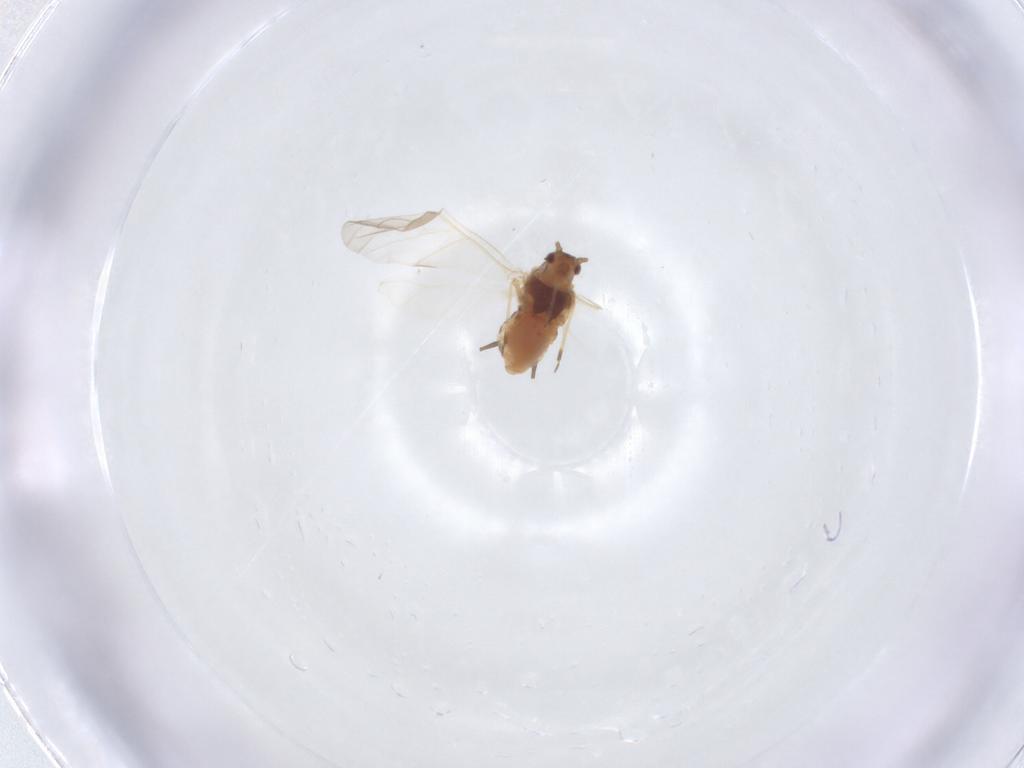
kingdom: Animalia
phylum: Arthropoda
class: Insecta
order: Hemiptera
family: Aphididae
